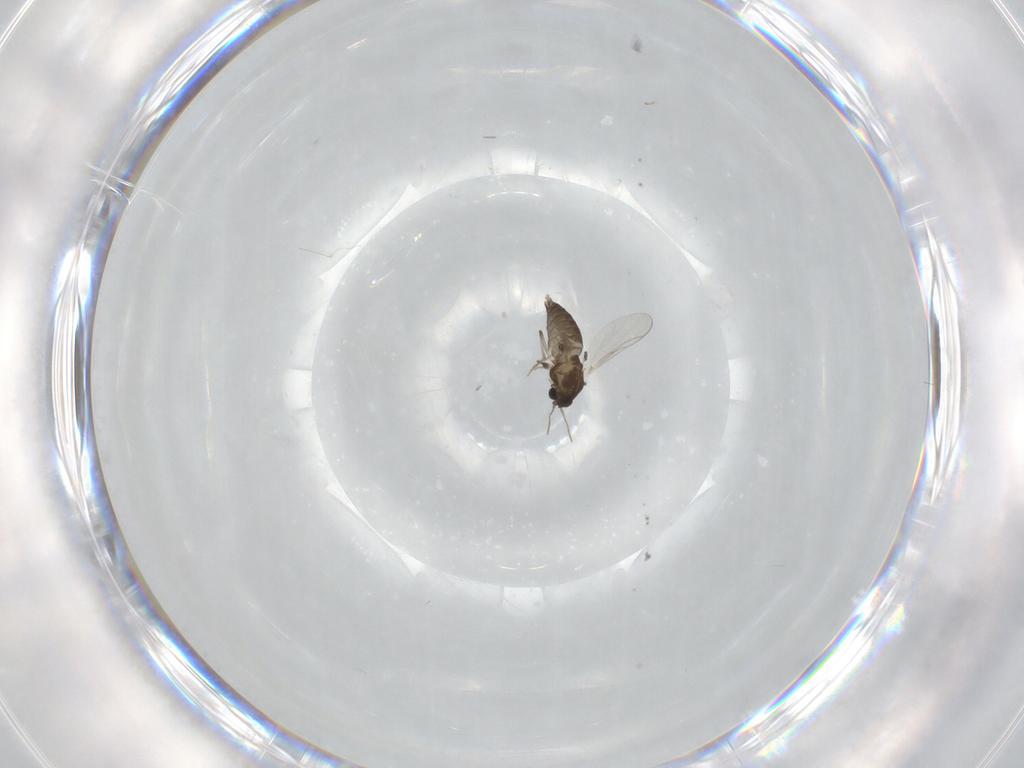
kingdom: Animalia
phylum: Arthropoda
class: Insecta
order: Diptera
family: Chironomidae
